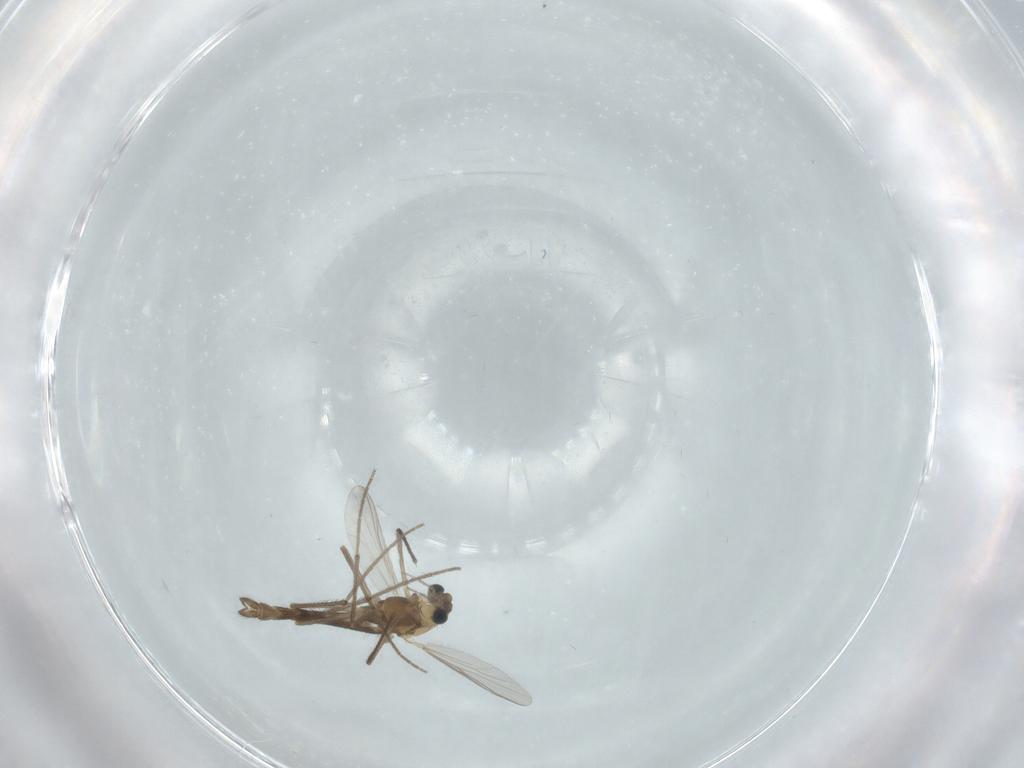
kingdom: Animalia
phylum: Arthropoda
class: Insecta
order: Diptera
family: Chironomidae
